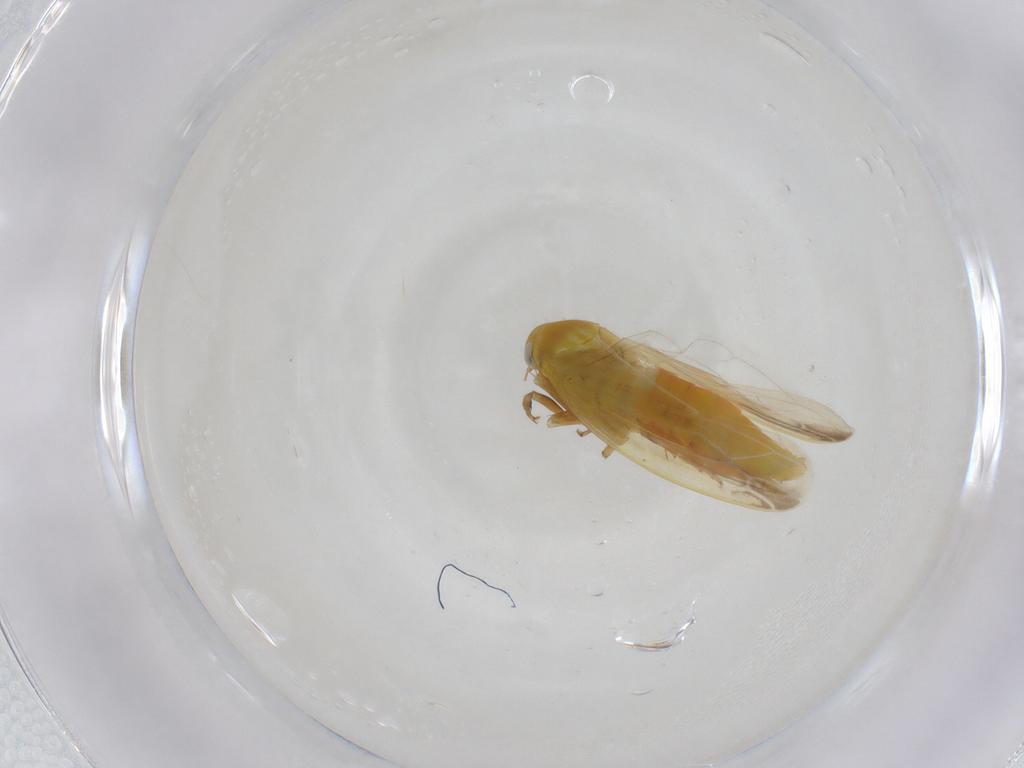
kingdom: Animalia
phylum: Arthropoda
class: Insecta
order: Hemiptera
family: Cicadellidae
